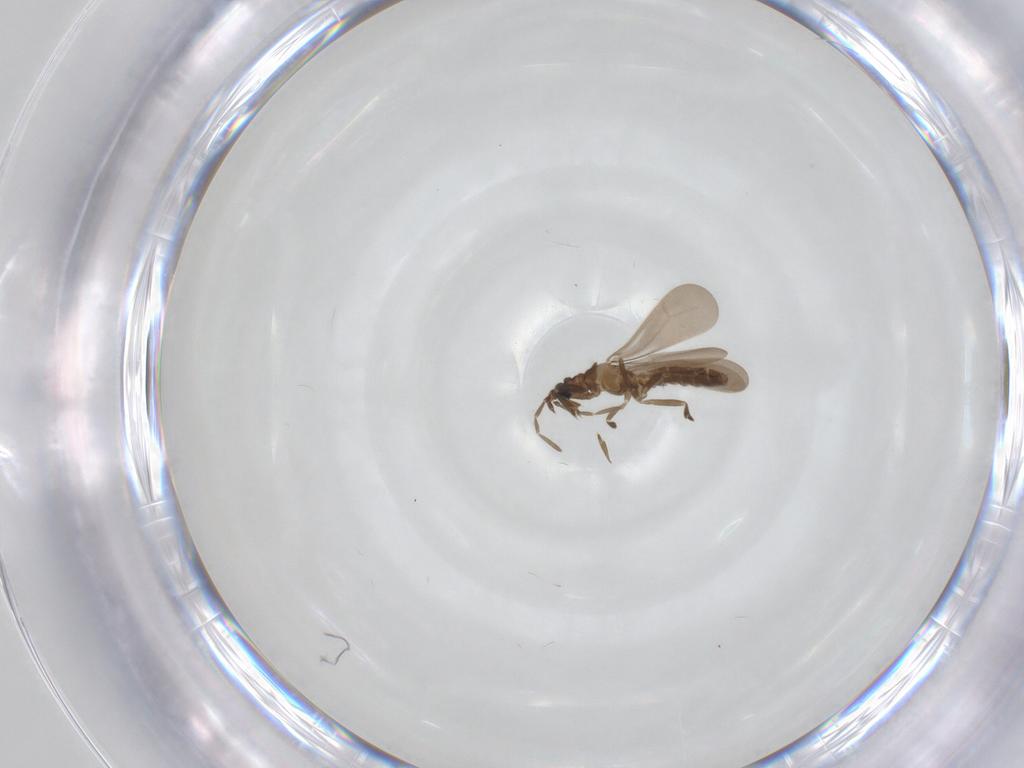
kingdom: Animalia
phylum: Arthropoda
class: Insecta
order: Hemiptera
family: Enicocephalidae
